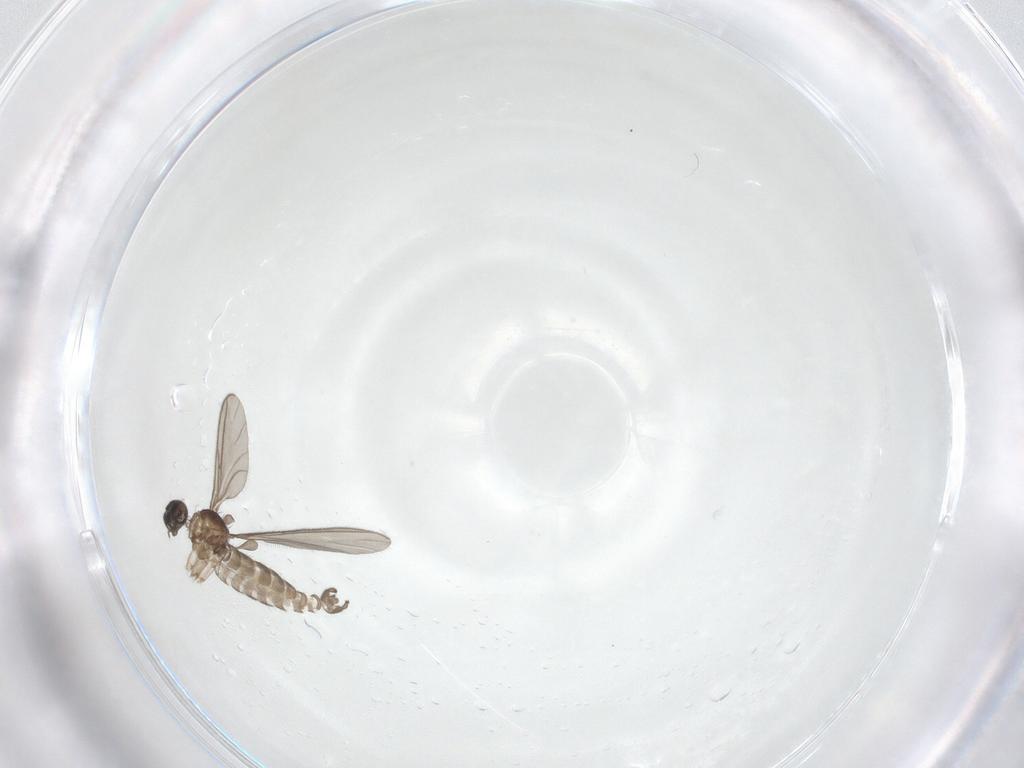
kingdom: Animalia
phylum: Arthropoda
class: Insecta
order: Diptera
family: Sciaridae
